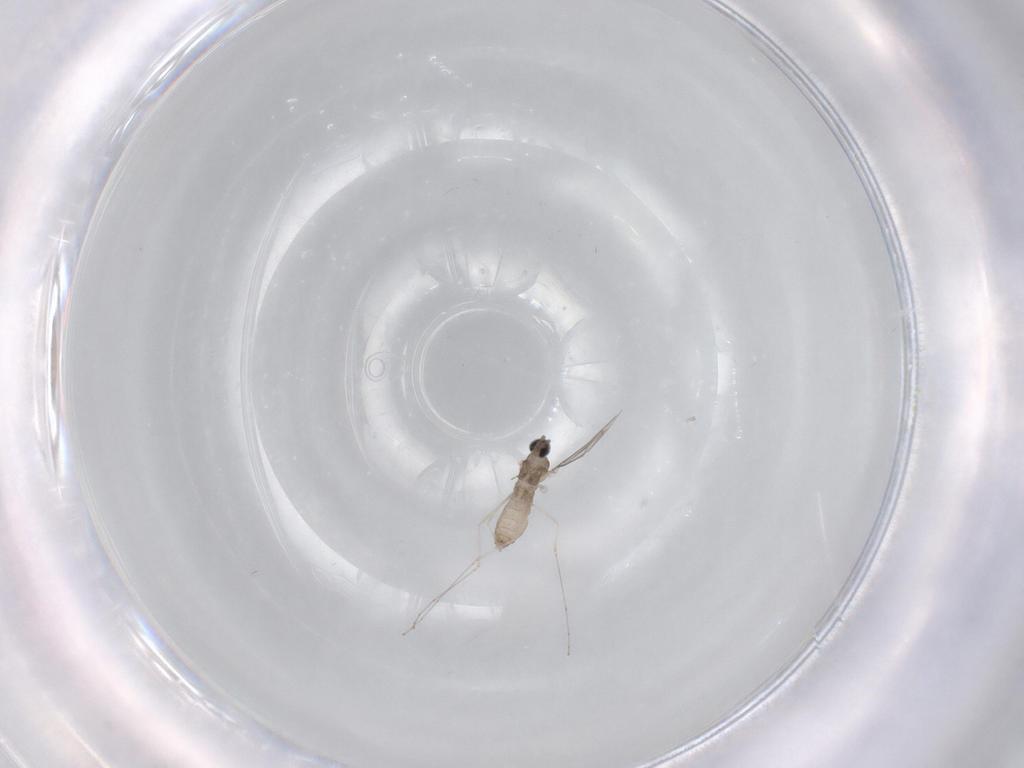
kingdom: Animalia
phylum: Arthropoda
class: Insecta
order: Diptera
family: Cecidomyiidae
